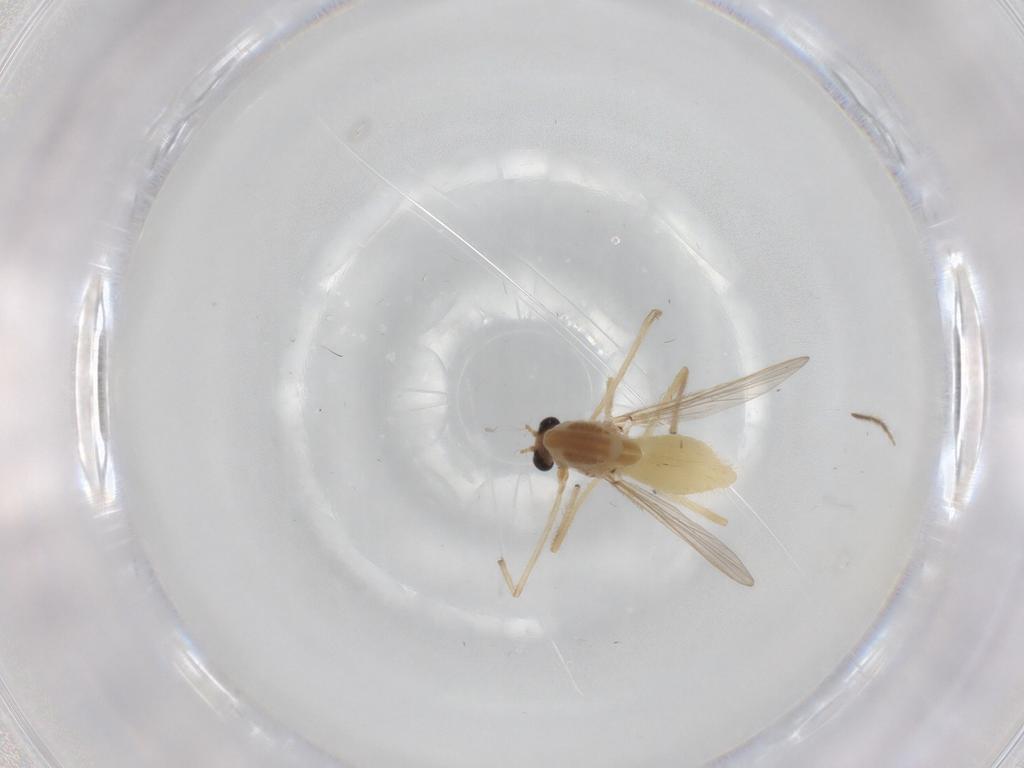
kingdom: Animalia
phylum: Arthropoda
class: Insecta
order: Diptera
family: Chironomidae
